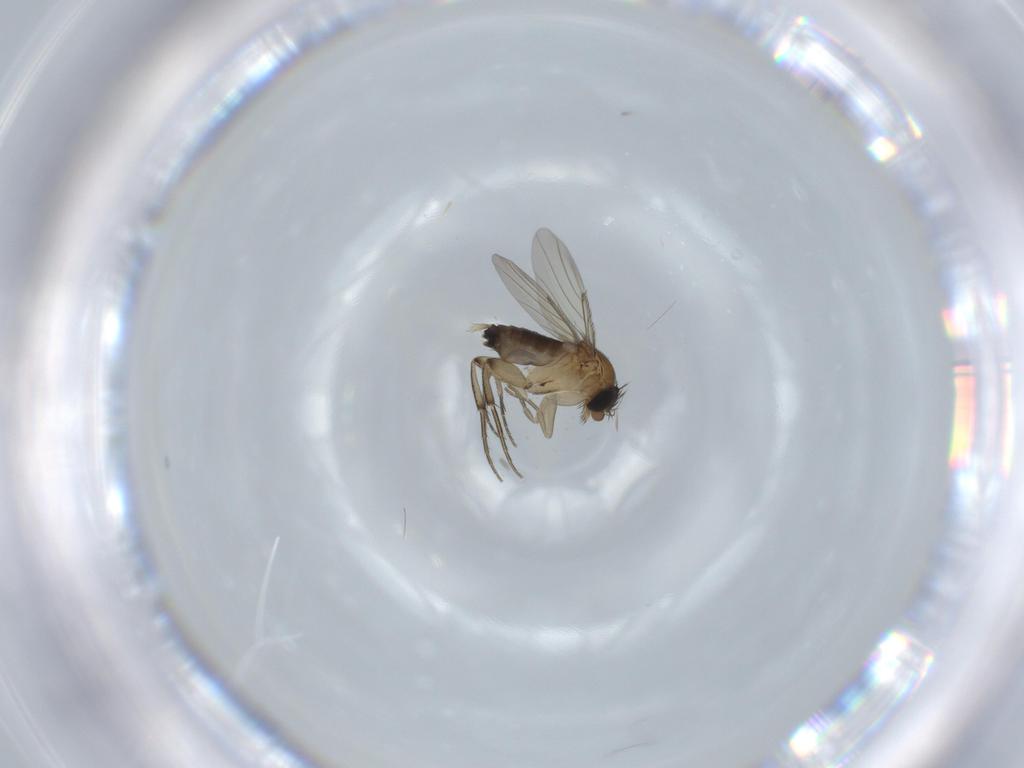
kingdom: Animalia
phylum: Arthropoda
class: Insecta
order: Diptera
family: Phoridae
